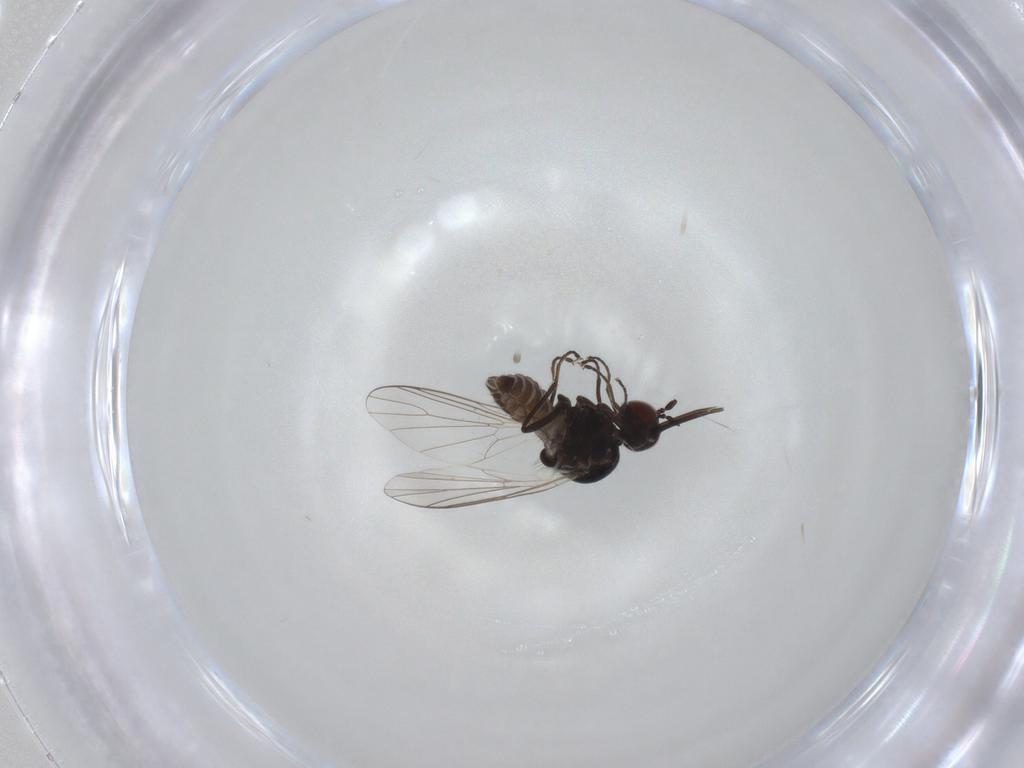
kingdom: Animalia
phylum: Arthropoda
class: Insecta
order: Diptera
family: Bombyliidae
